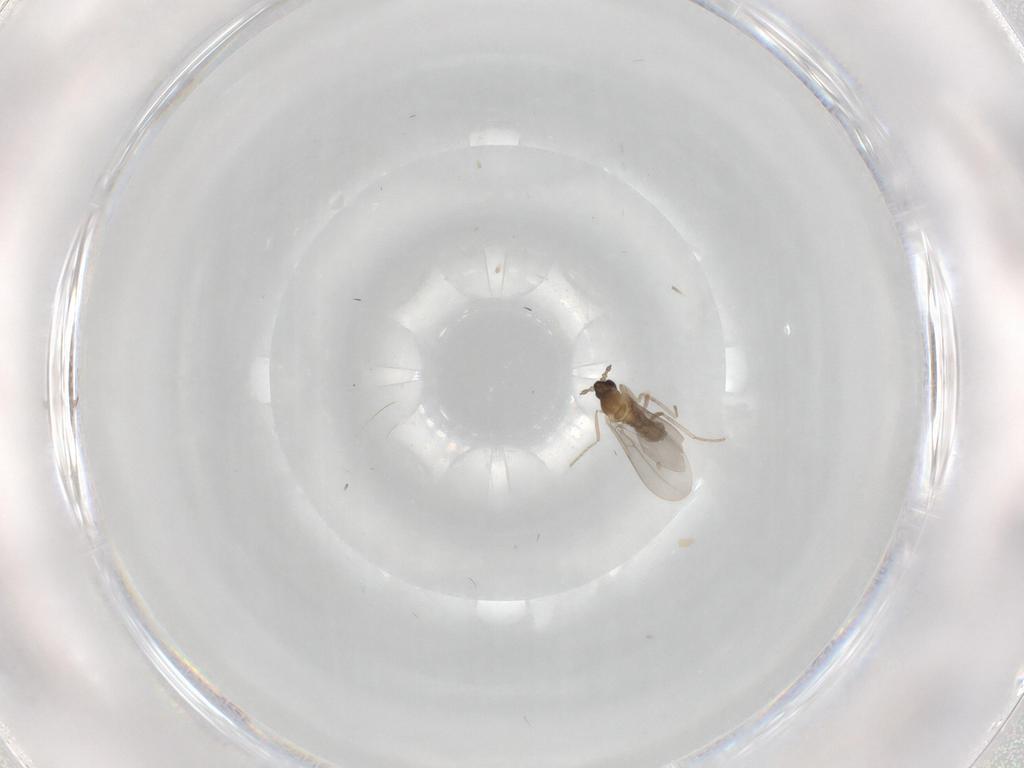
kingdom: Animalia
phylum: Arthropoda
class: Insecta
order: Diptera
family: Cecidomyiidae
